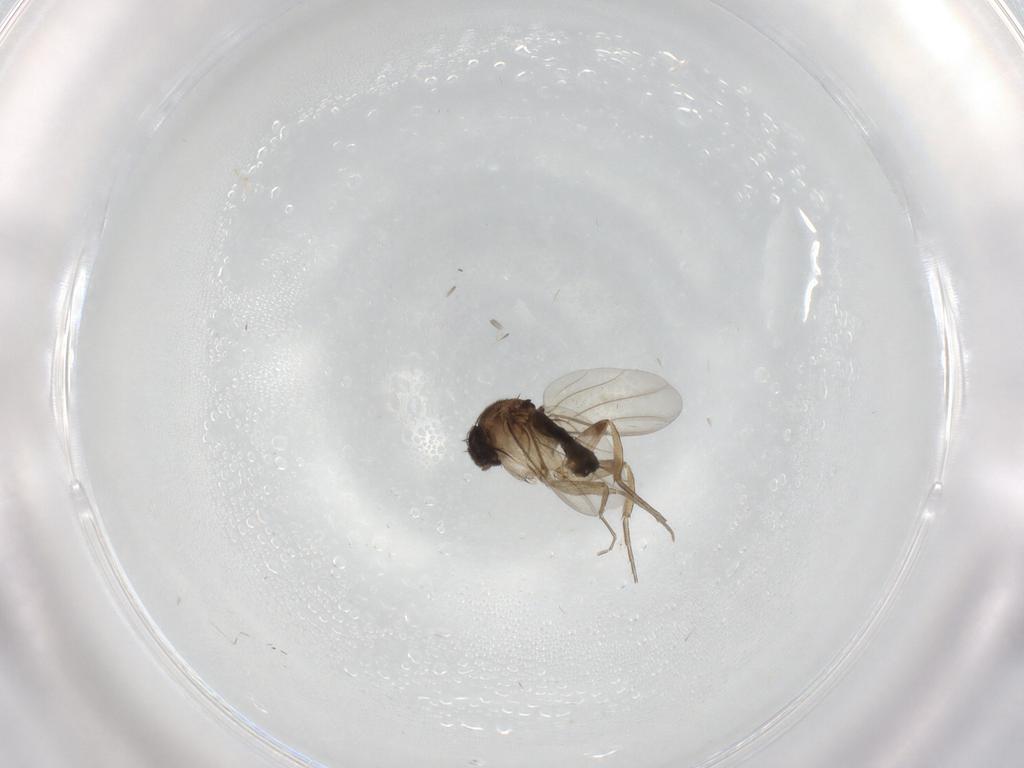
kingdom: Animalia
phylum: Arthropoda
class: Insecta
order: Diptera
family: Phoridae
